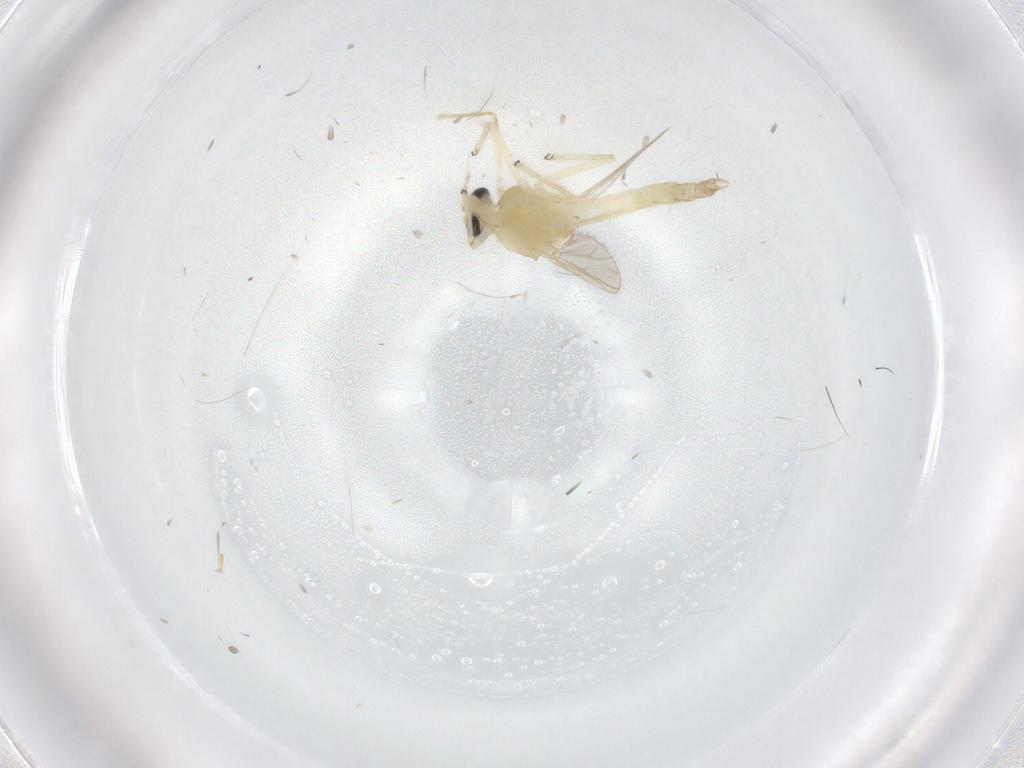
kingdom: Animalia
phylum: Arthropoda
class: Insecta
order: Diptera
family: Chironomidae
